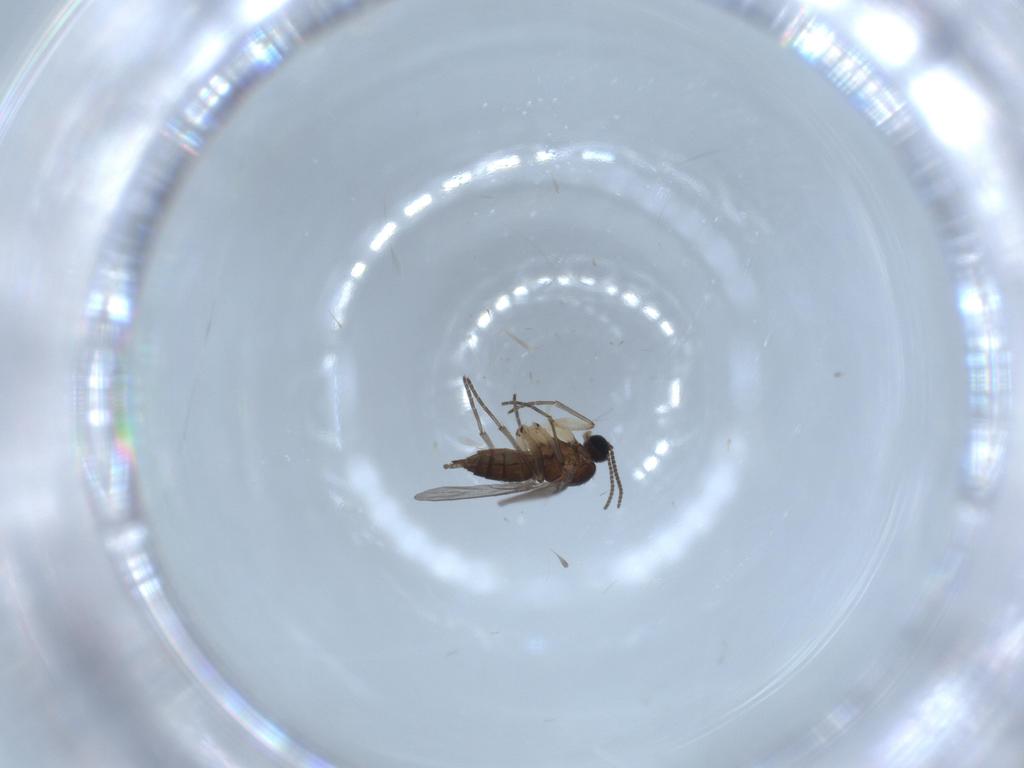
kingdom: Animalia
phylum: Arthropoda
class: Insecta
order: Diptera
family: Sciaridae
